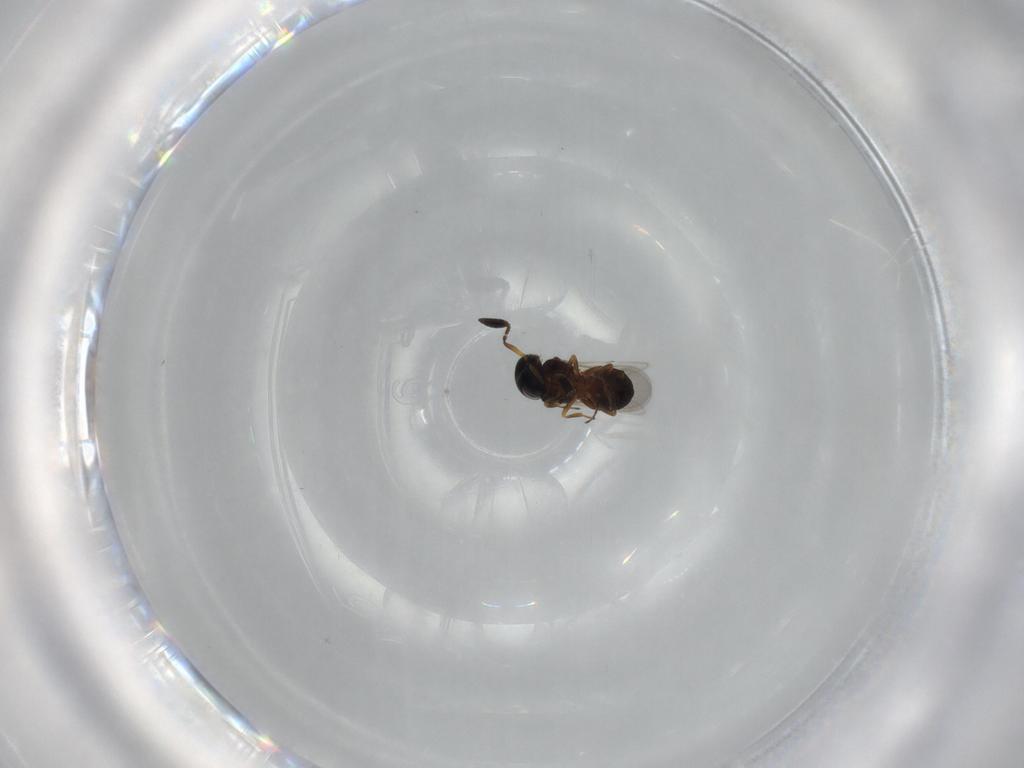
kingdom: Animalia
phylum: Arthropoda
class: Insecta
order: Hymenoptera
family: Scelionidae
